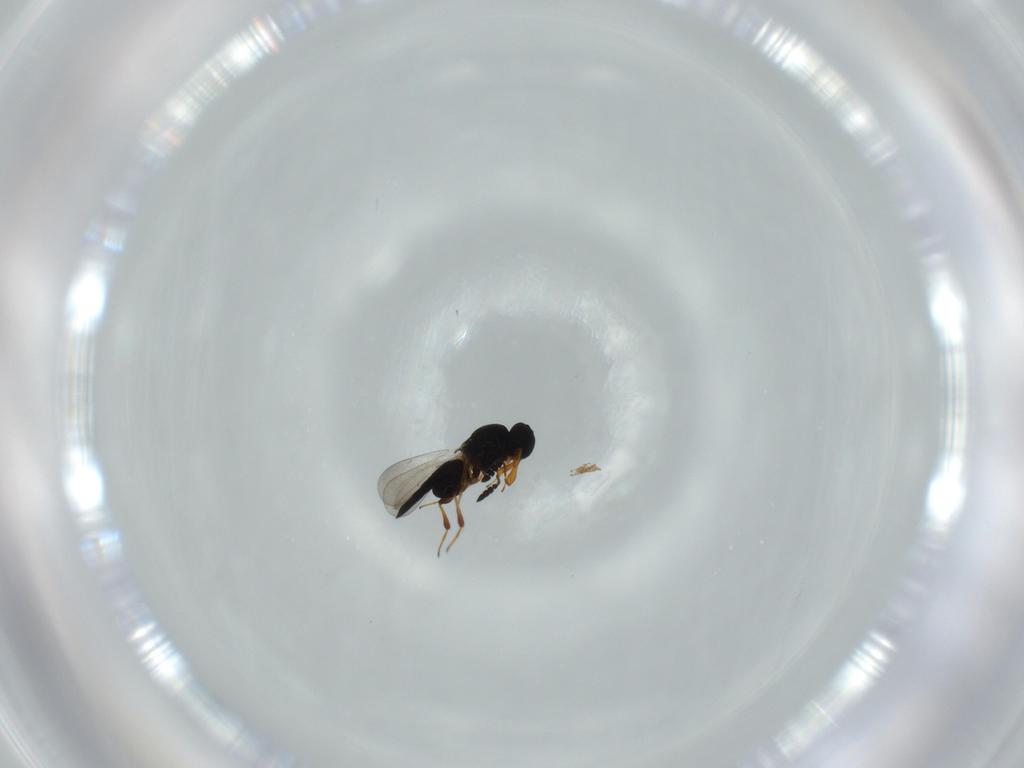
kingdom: Animalia
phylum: Arthropoda
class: Insecta
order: Hymenoptera
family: Platygastridae
